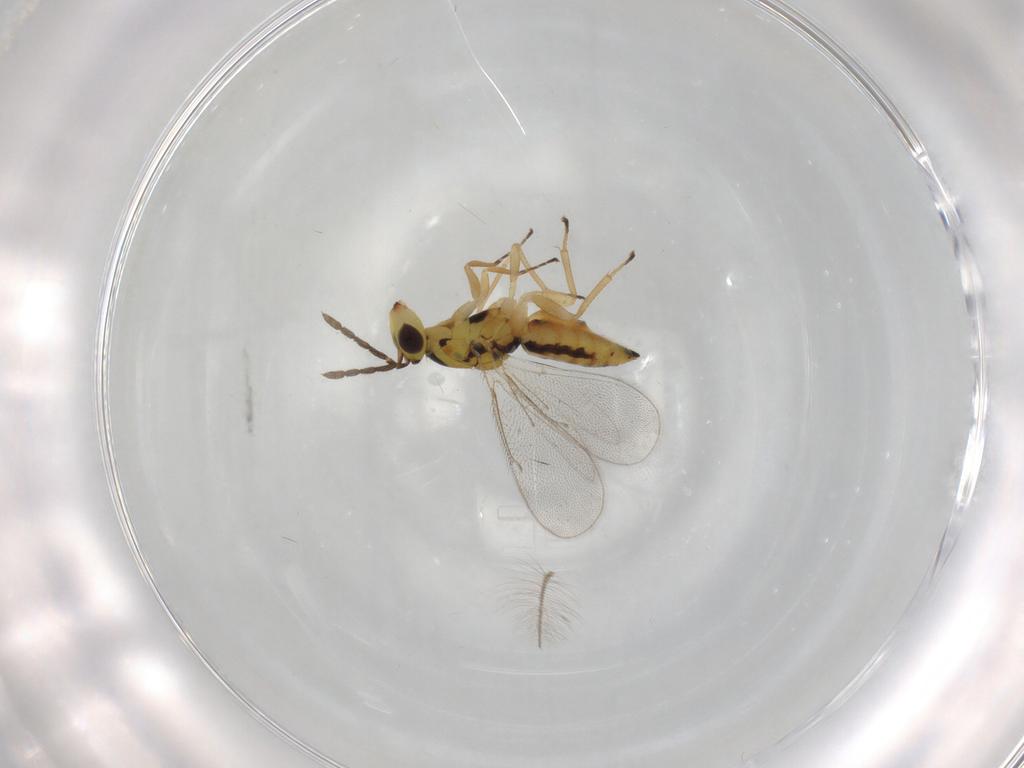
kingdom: Animalia
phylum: Arthropoda
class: Insecta
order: Hymenoptera
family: Eulophidae
